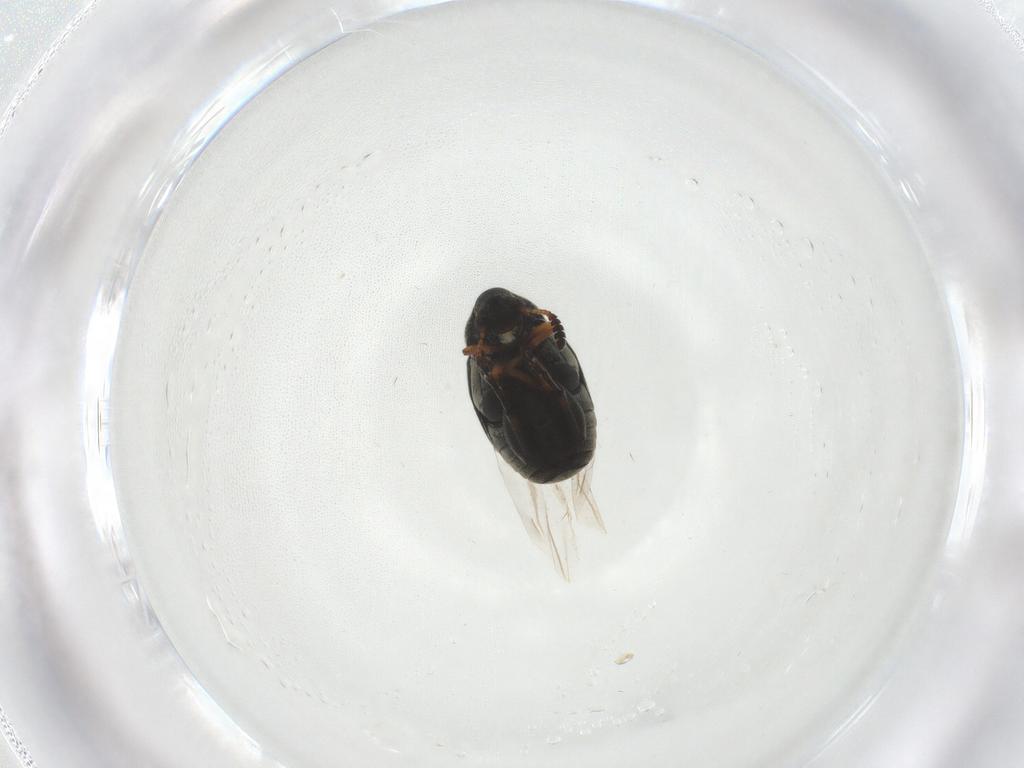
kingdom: Animalia
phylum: Arthropoda
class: Insecta
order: Coleoptera
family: Chrysomelidae
